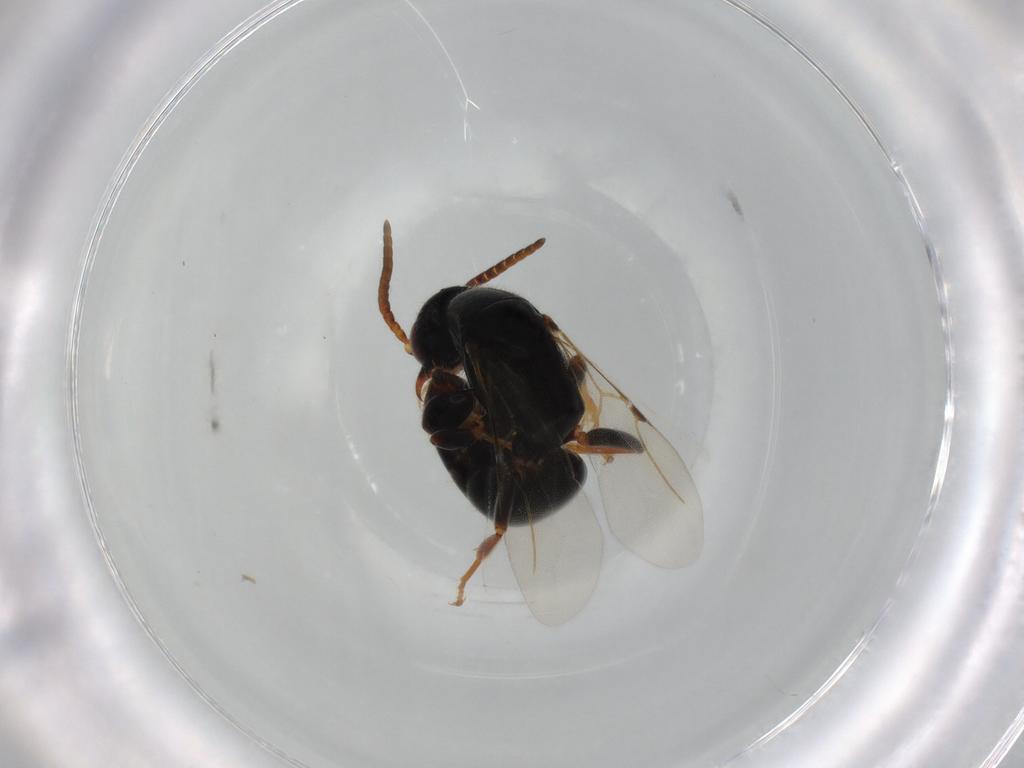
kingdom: Animalia
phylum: Arthropoda
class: Insecta
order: Hymenoptera
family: Bethylidae
